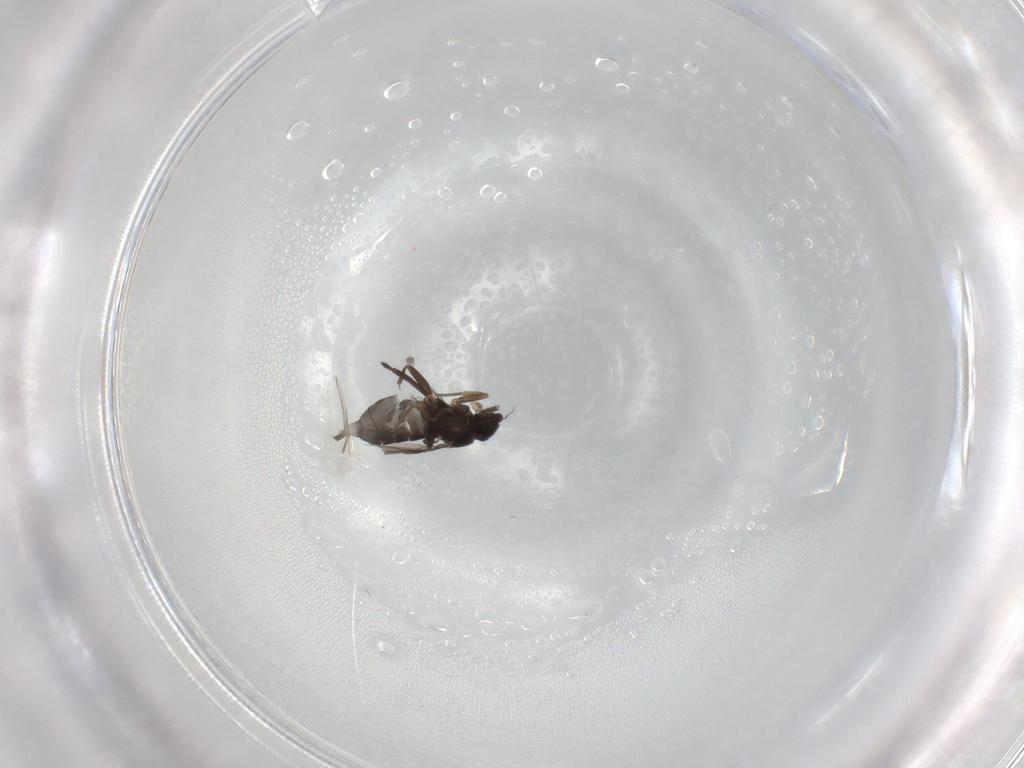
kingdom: Animalia
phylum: Arthropoda
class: Insecta
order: Diptera
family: Phoridae
